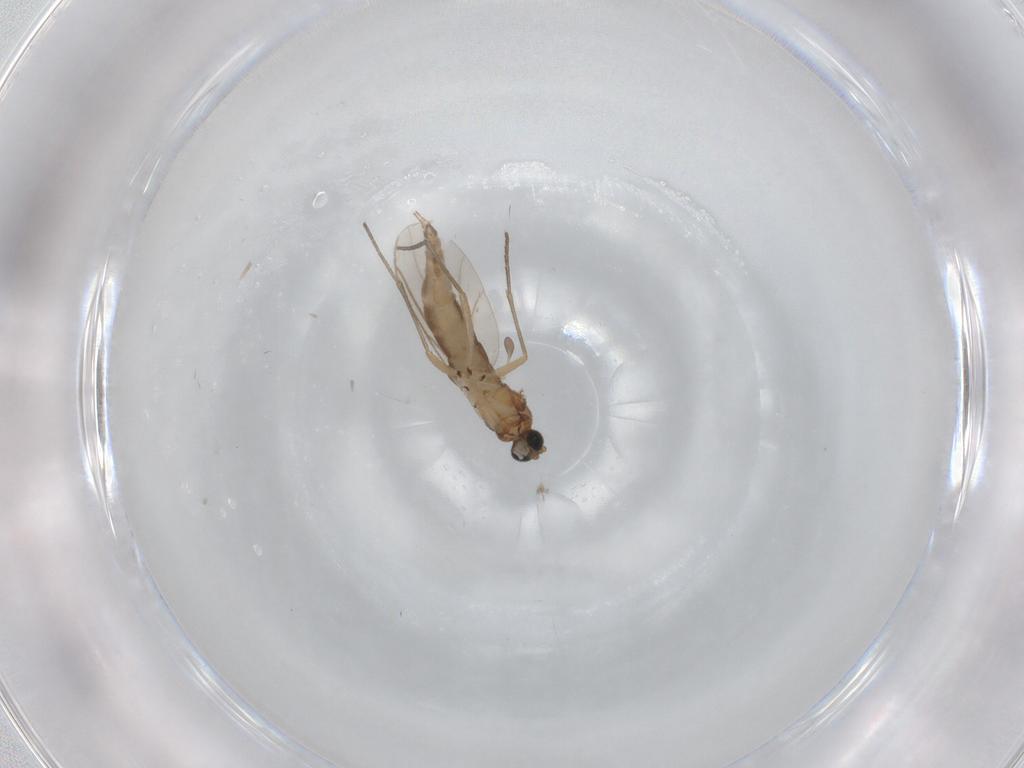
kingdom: Animalia
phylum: Arthropoda
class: Insecta
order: Diptera
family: Sciaridae
